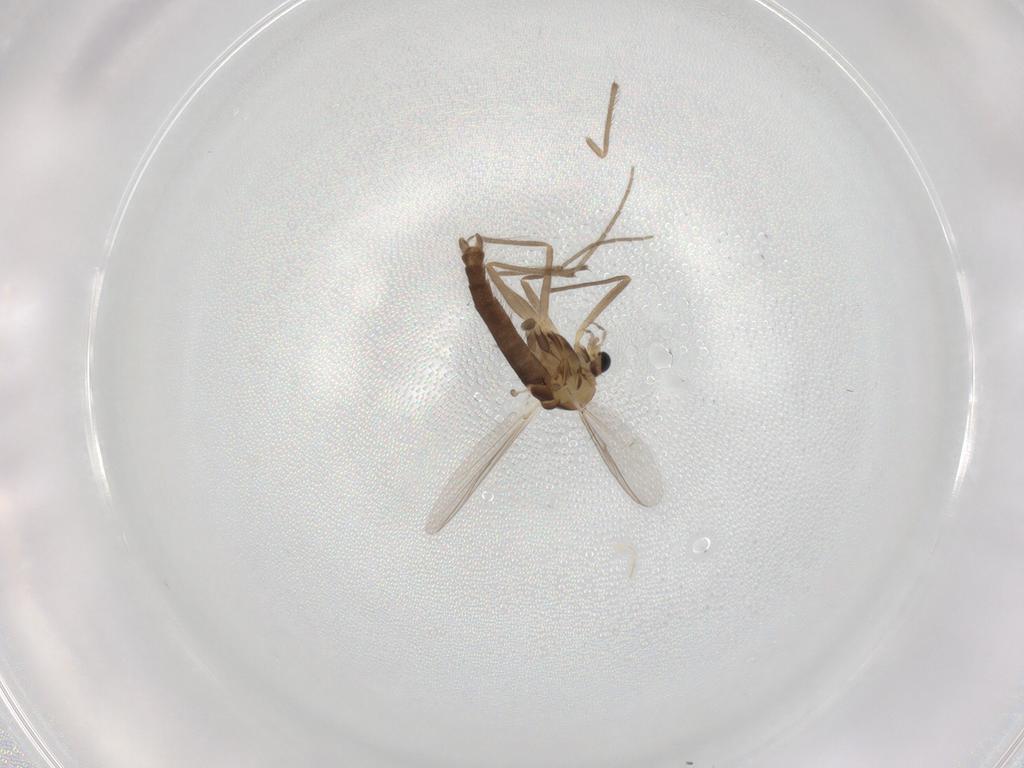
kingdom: Animalia
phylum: Arthropoda
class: Insecta
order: Diptera
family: Chironomidae
